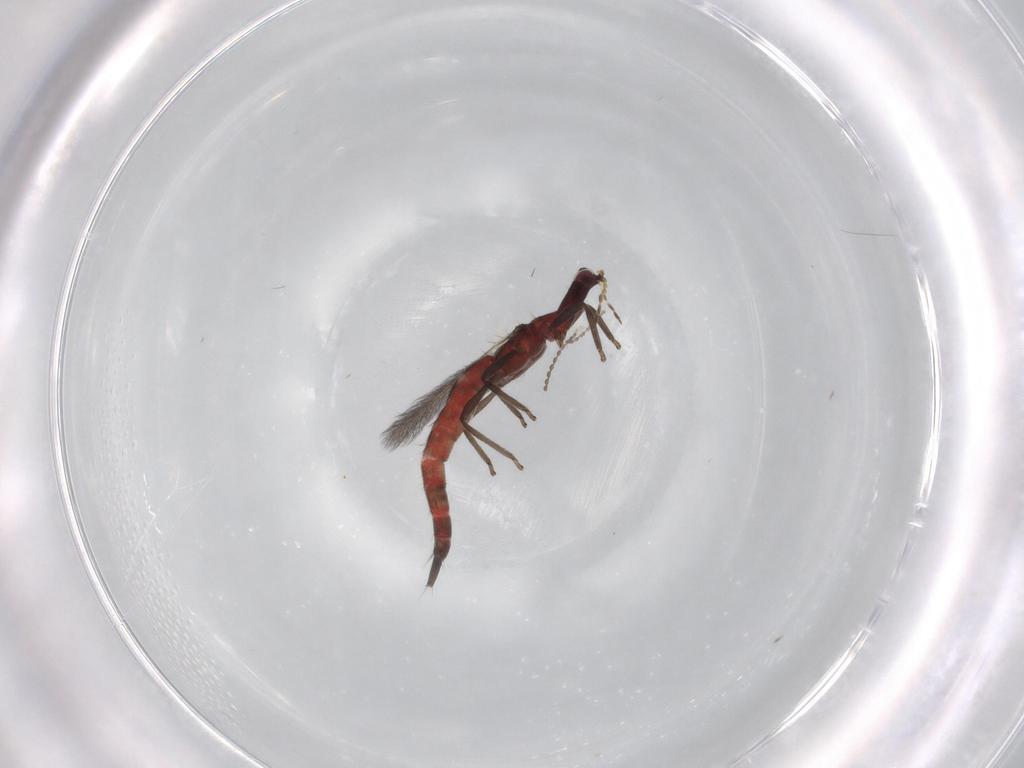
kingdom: Animalia
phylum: Arthropoda
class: Insecta
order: Thysanoptera
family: Phlaeothripidae
